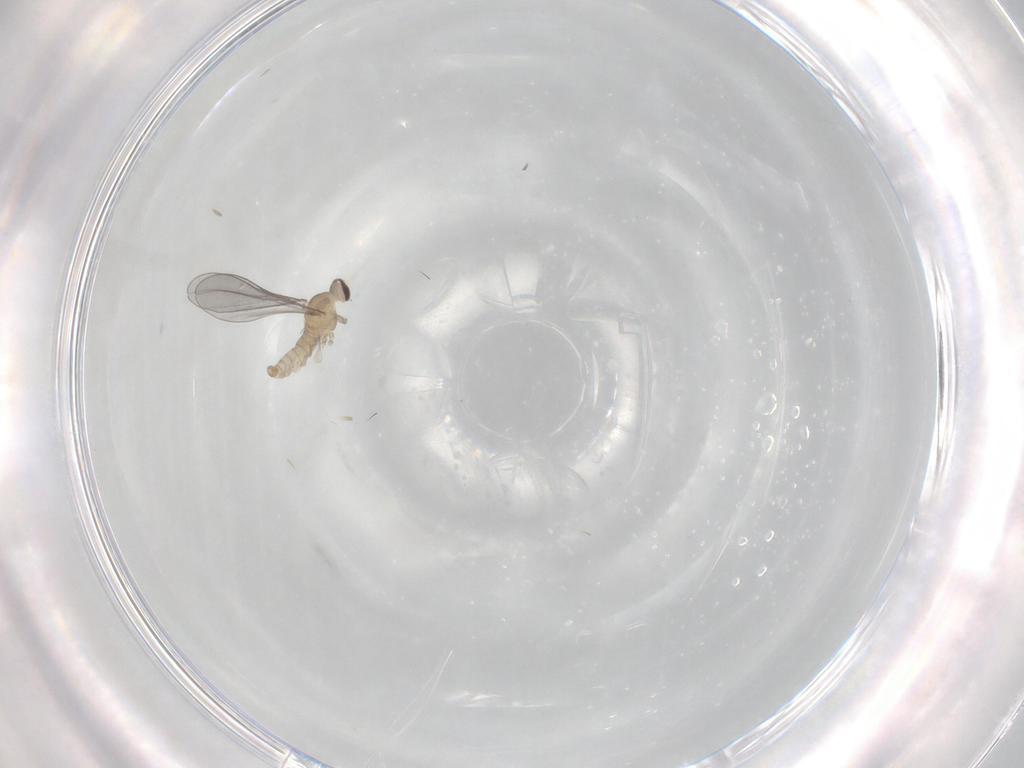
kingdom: Animalia
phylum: Arthropoda
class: Insecta
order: Diptera
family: Cecidomyiidae
